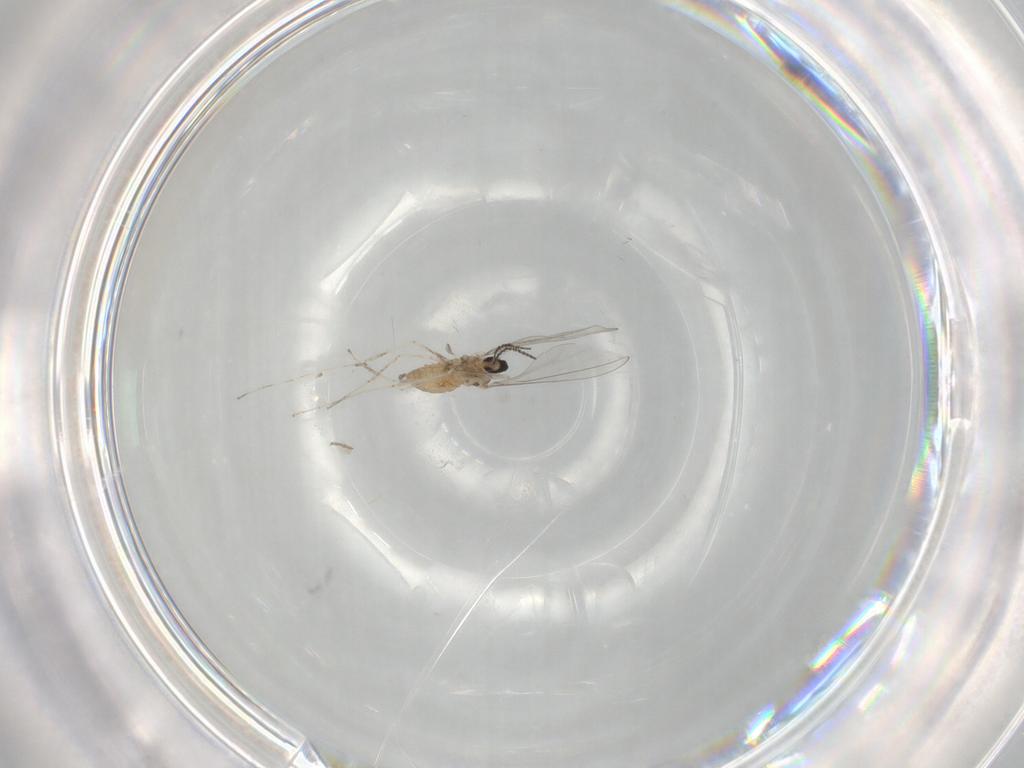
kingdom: Animalia
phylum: Arthropoda
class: Insecta
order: Diptera
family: Cecidomyiidae
